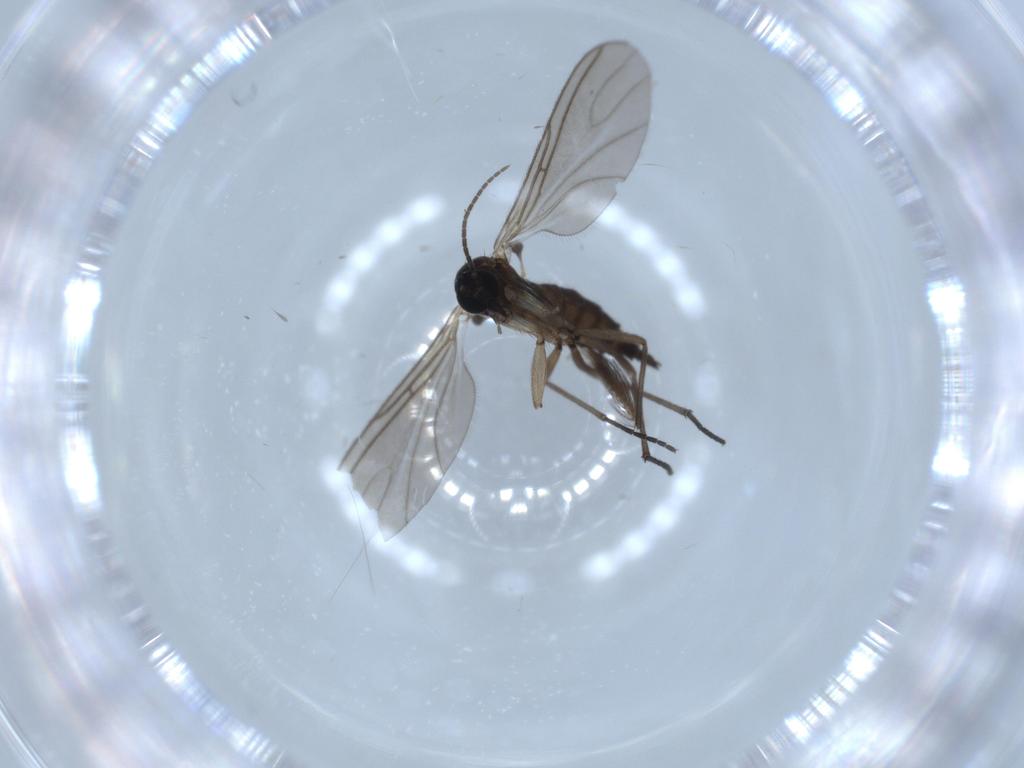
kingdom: Animalia
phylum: Arthropoda
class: Insecta
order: Diptera
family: Sciaridae
